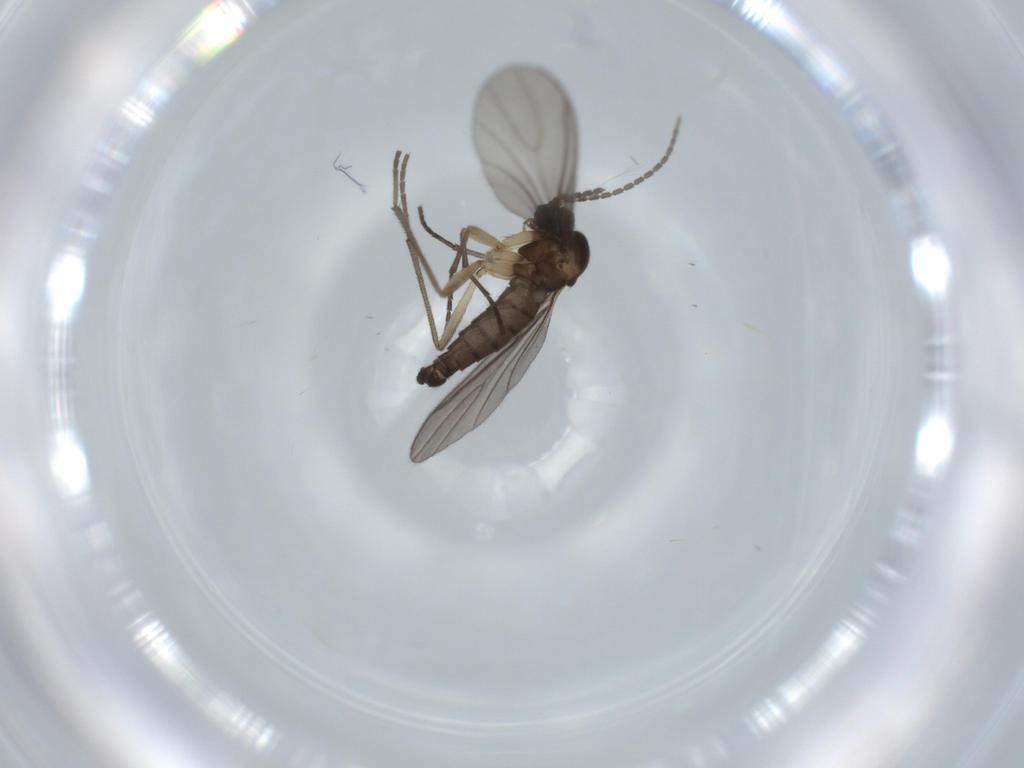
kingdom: Animalia
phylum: Arthropoda
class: Insecta
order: Diptera
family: Sciaridae
